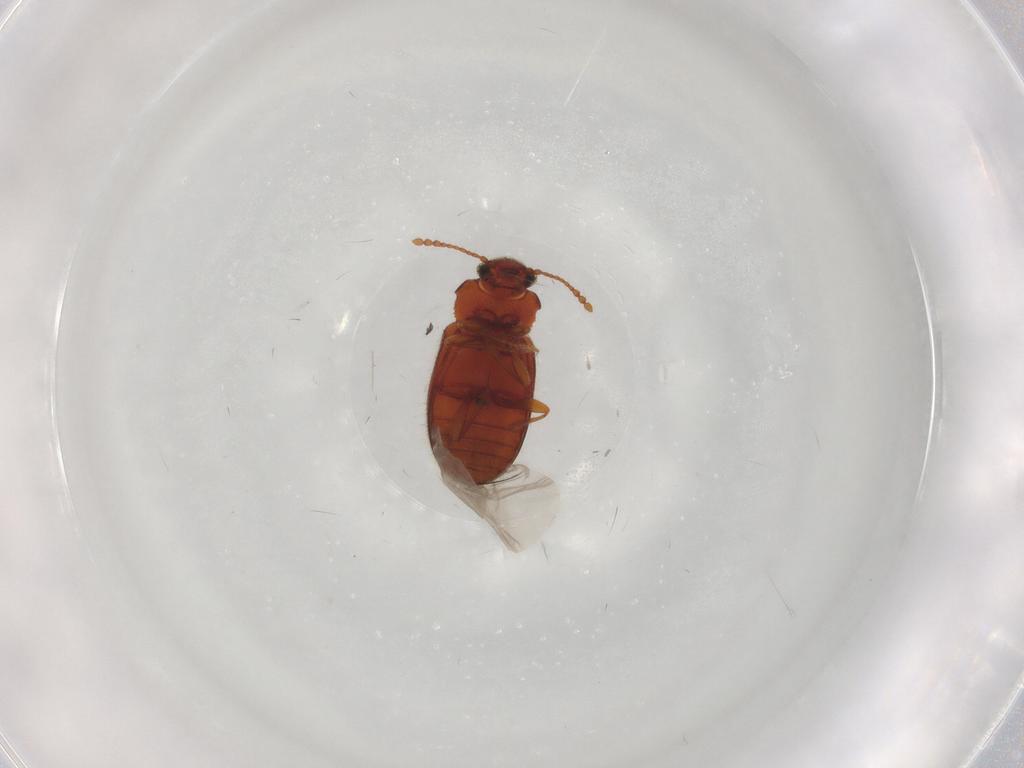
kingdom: Animalia
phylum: Arthropoda
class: Insecta
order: Coleoptera
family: Cryptophagidae
